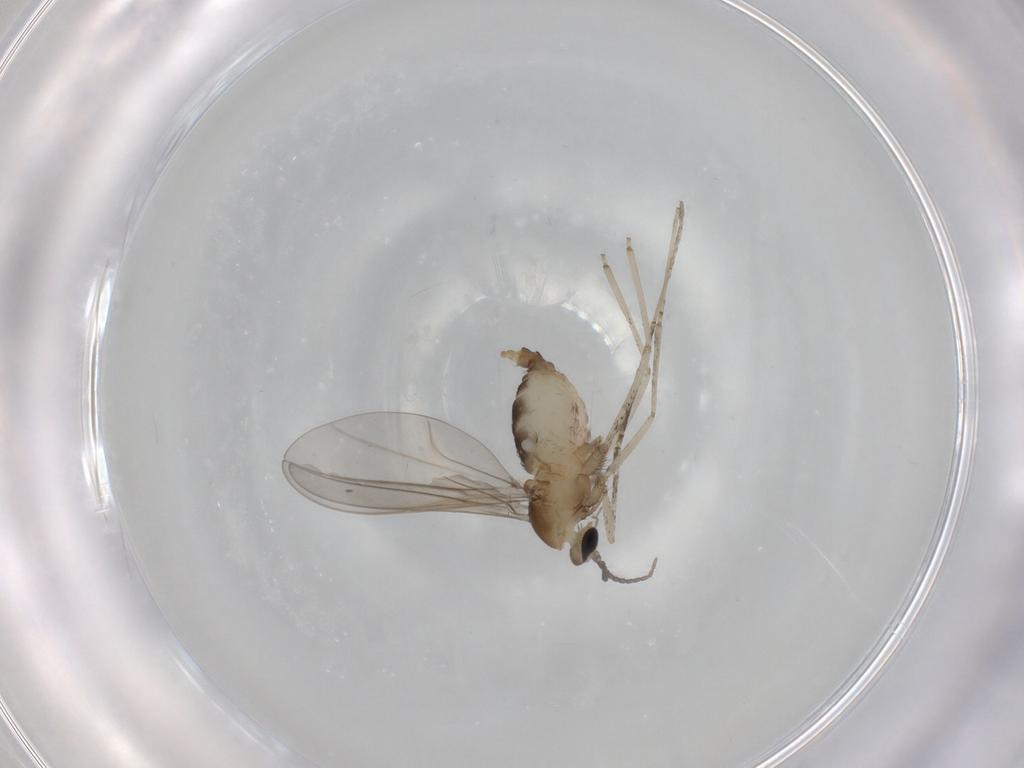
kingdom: Animalia
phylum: Arthropoda
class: Insecta
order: Diptera
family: Cecidomyiidae
